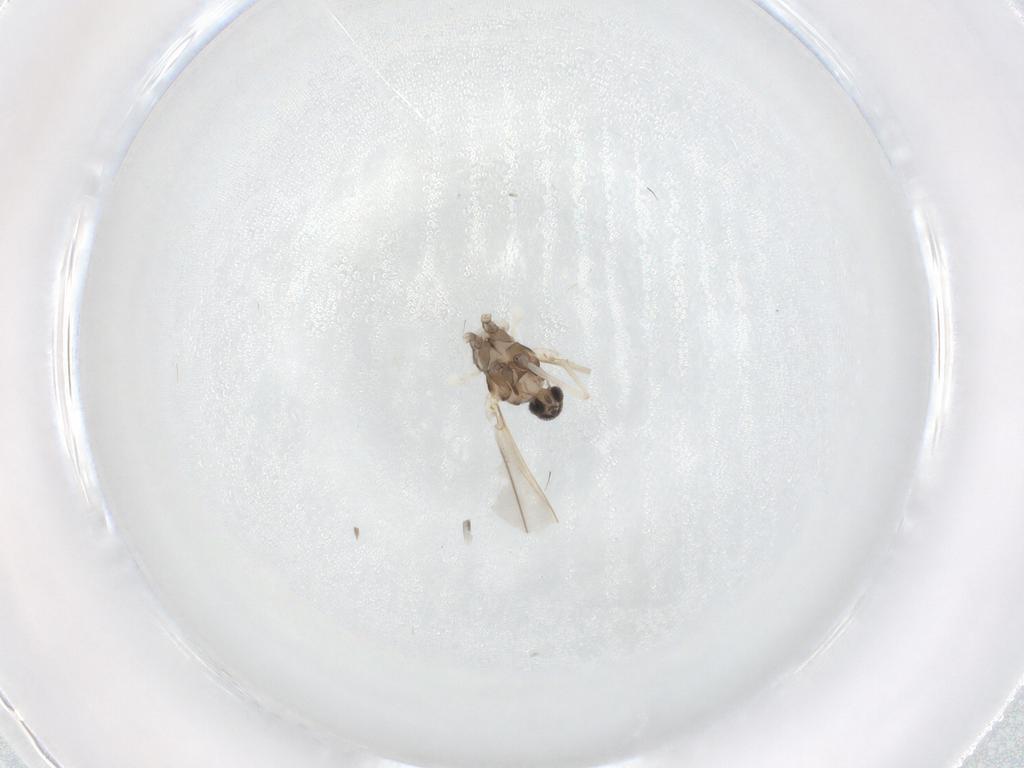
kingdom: Animalia
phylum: Arthropoda
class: Insecta
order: Diptera
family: Cecidomyiidae
